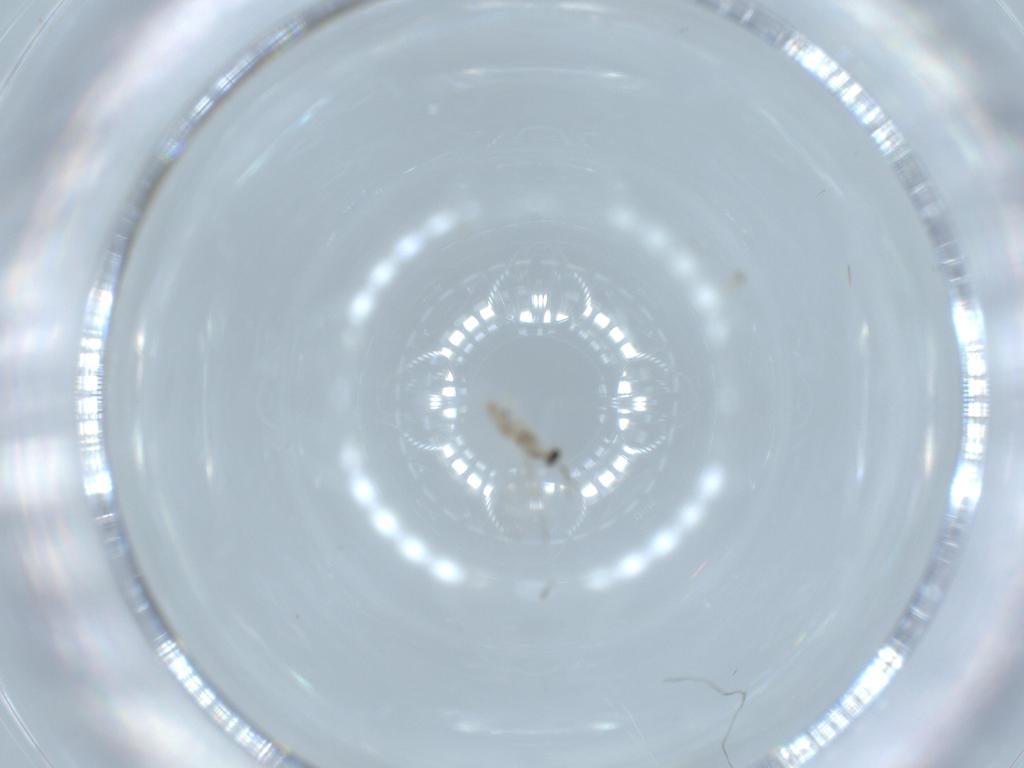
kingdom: Animalia
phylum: Arthropoda
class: Insecta
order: Diptera
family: Cecidomyiidae
